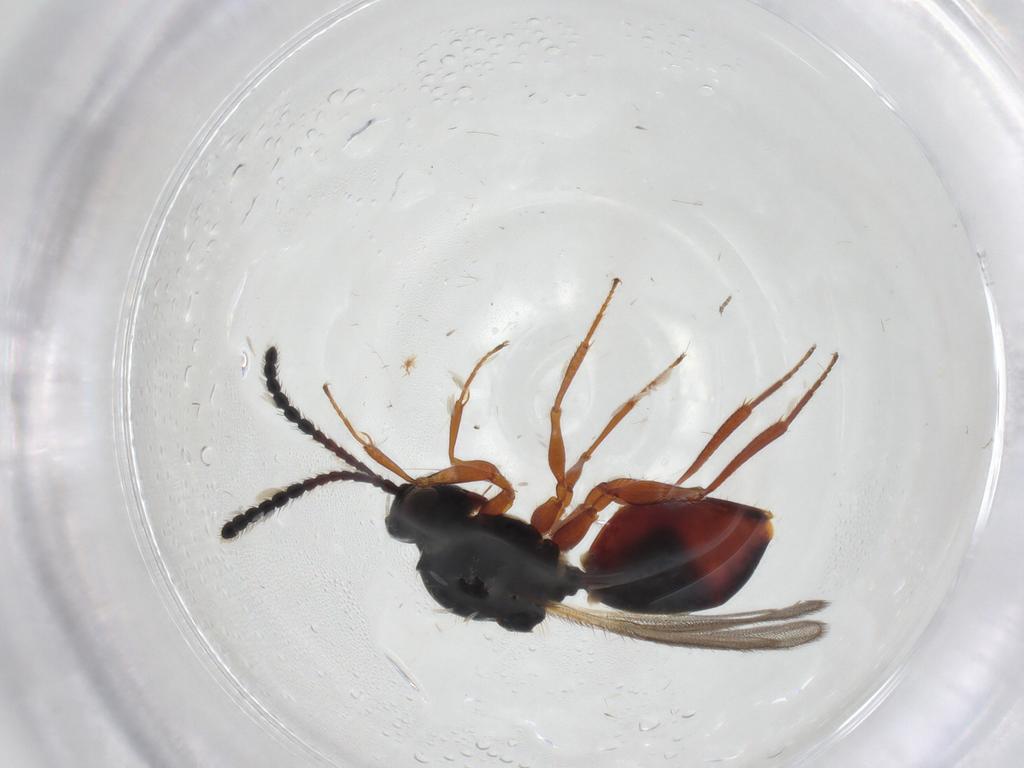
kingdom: Animalia
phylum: Arthropoda
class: Insecta
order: Hymenoptera
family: Figitidae
